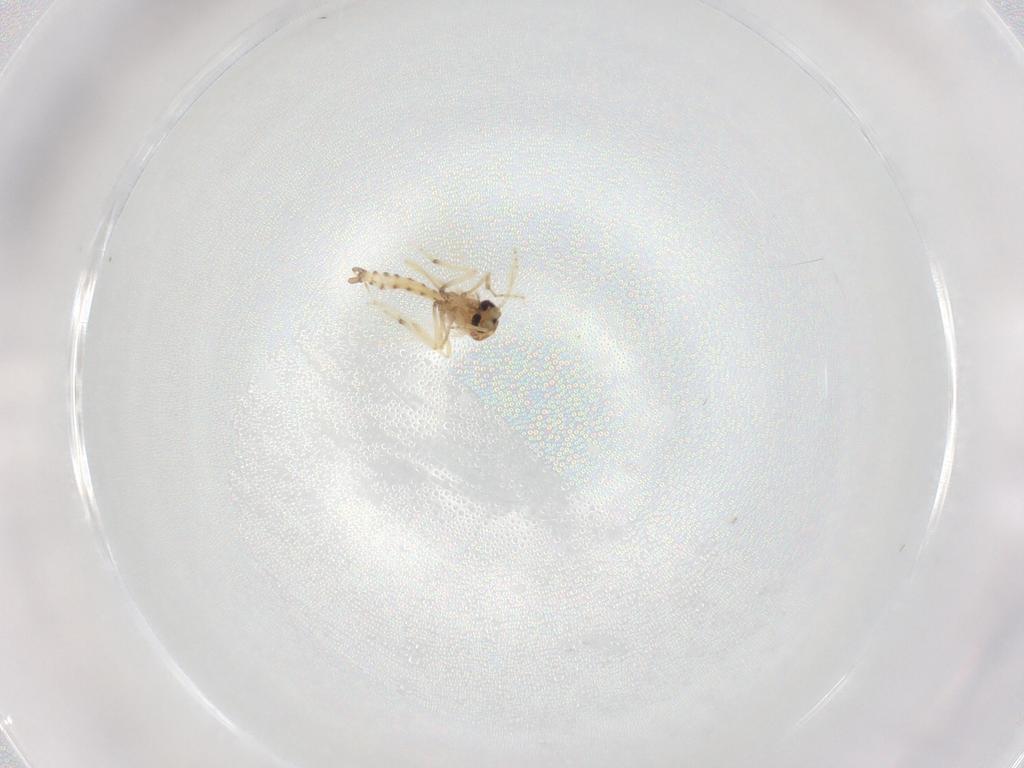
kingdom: Animalia
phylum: Arthropoda
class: Insecta
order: Diptera
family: Ceratopogonidae
